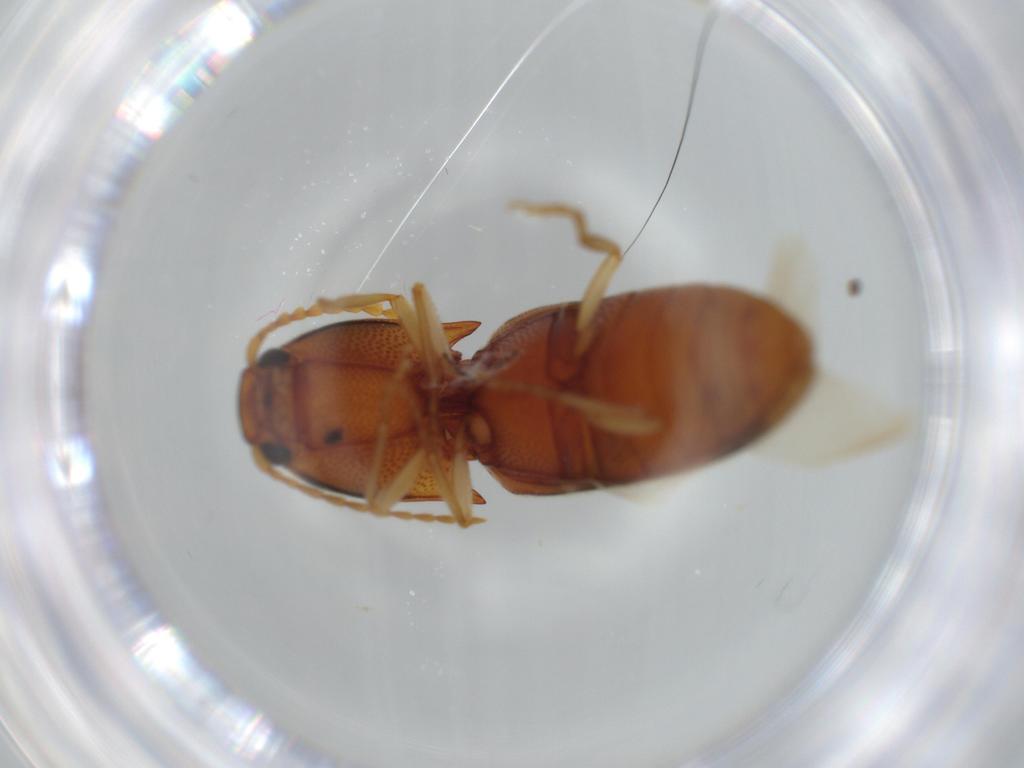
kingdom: Animalia
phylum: Arthropoda
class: Insecta
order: Coleoptera
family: Elateridae
